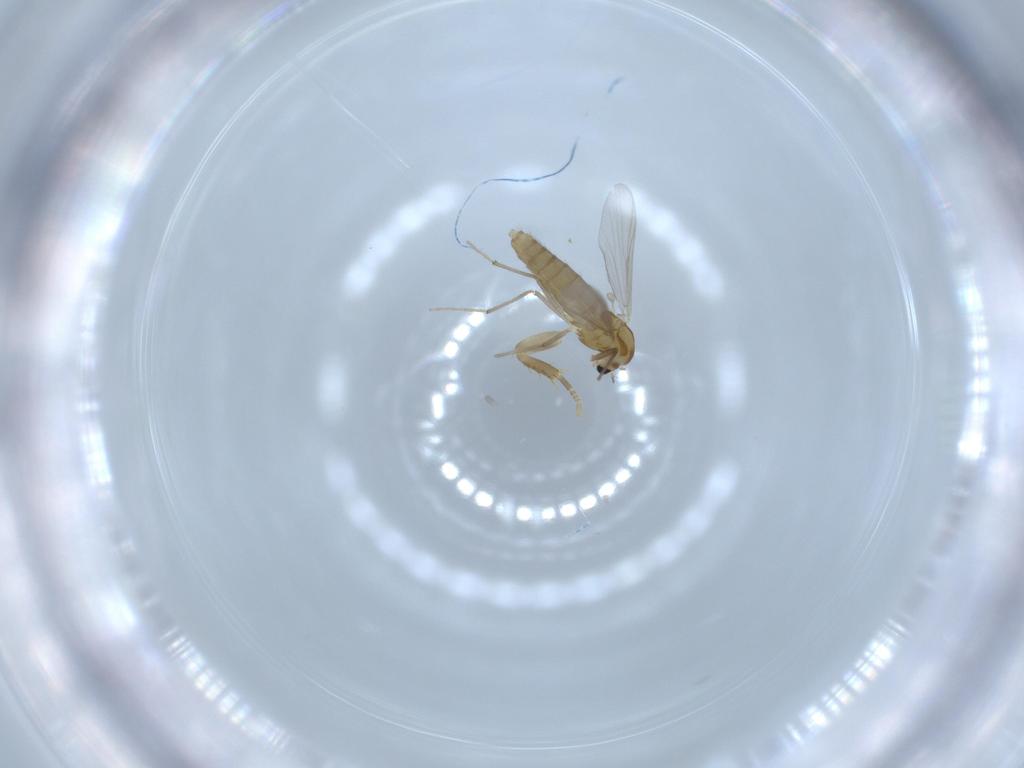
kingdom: Animalia
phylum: Arthropoda
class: Insecta
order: Diptera
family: Chironomidae
